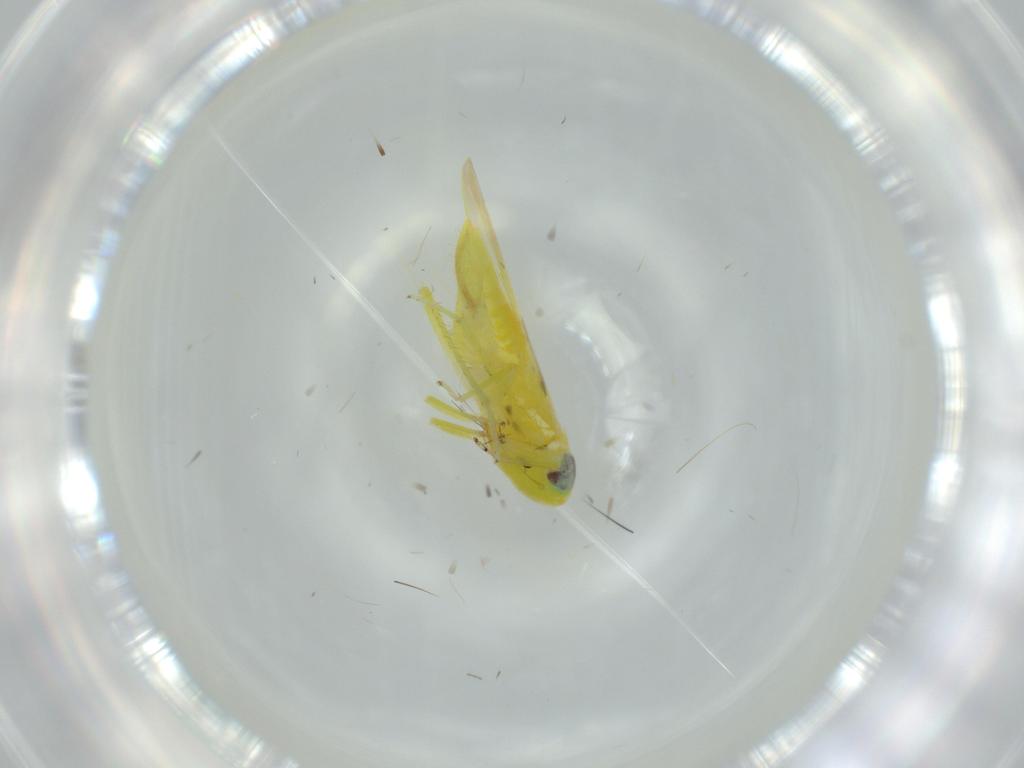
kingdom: Animalia
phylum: Arthropoda
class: Insecta
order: Hemiptera
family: Cicadellidae
